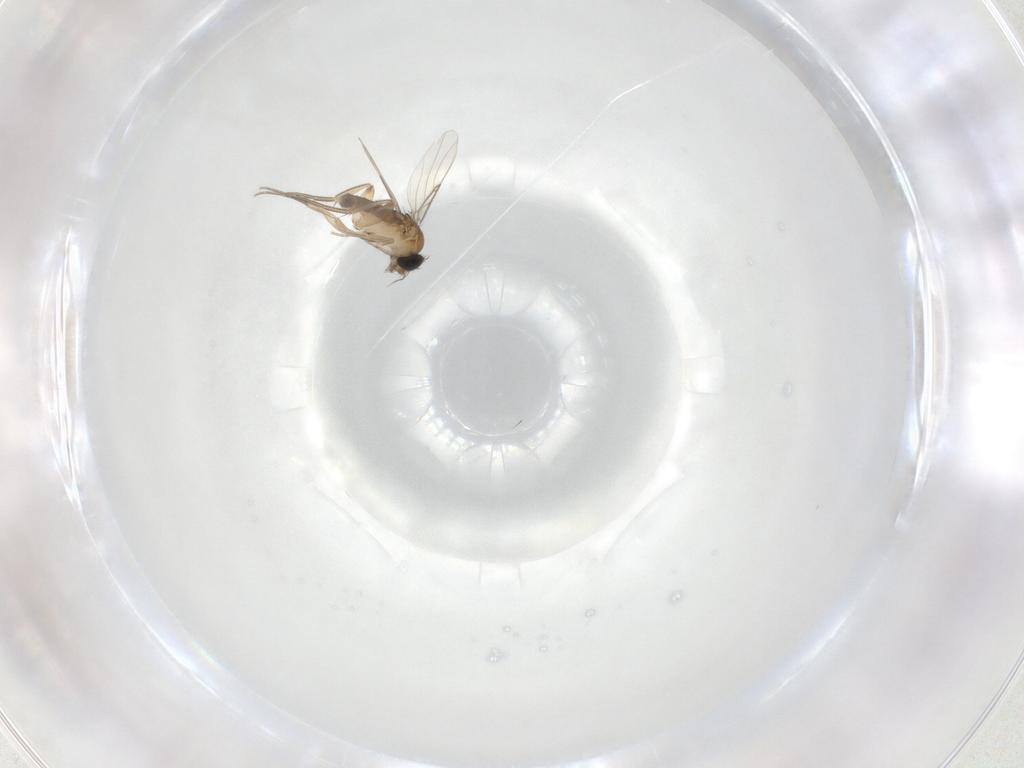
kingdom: Animalia
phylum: Arthropoda
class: Insecta
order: Diptera
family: Phoridae
